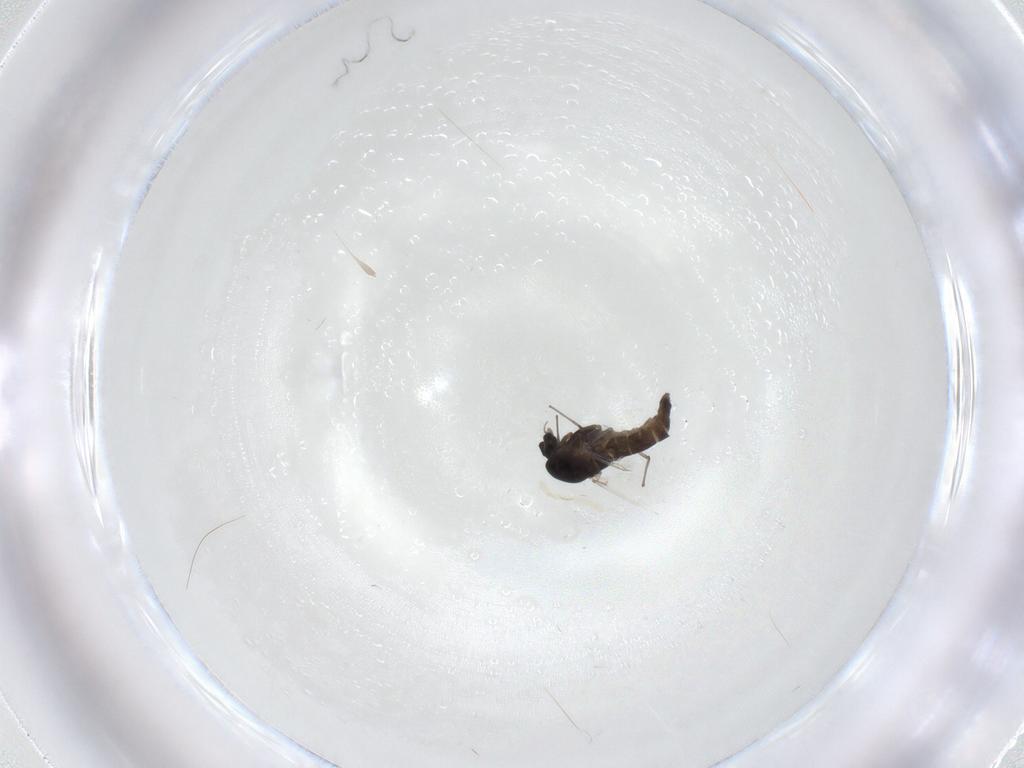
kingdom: Animalia
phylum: Arthropoda
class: Insecta
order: Diptera
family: Chironomidae
